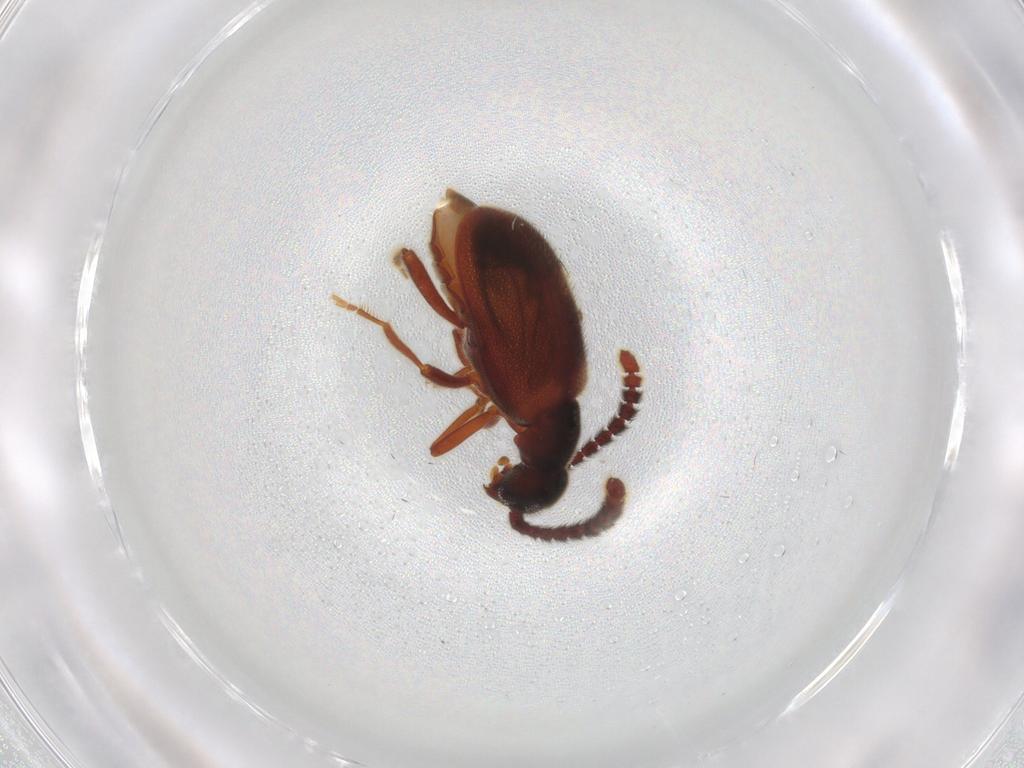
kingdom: Animalia
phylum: Arthropoda
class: Insecta
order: Coleoptera
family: Aderidae
